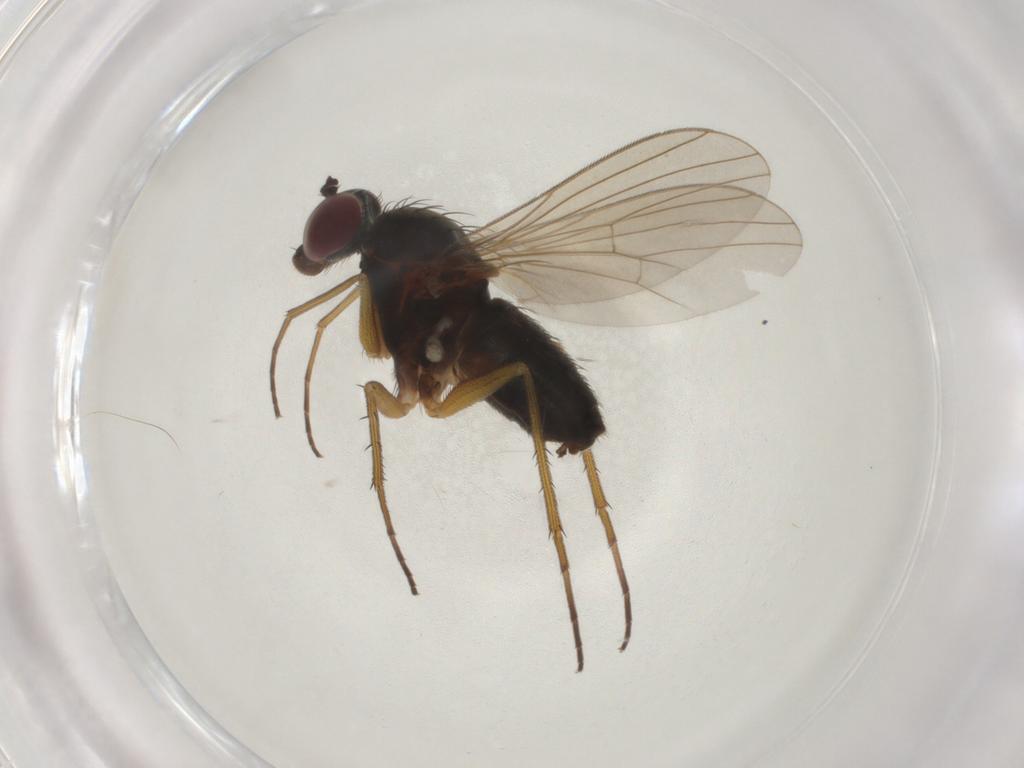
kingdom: Animalia
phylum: Arthropoda
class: Insecta
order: Diptera
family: Dolichopodidae
